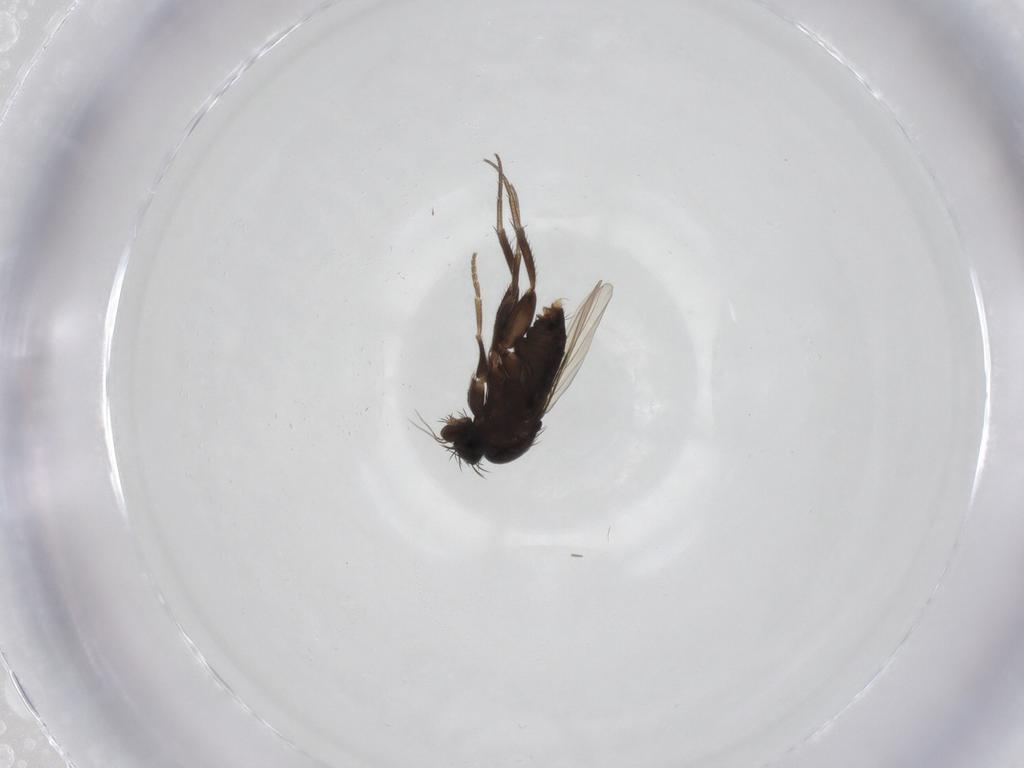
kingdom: Animalia
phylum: Arthropoda
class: Insecta
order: Diptera
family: Phoridae
